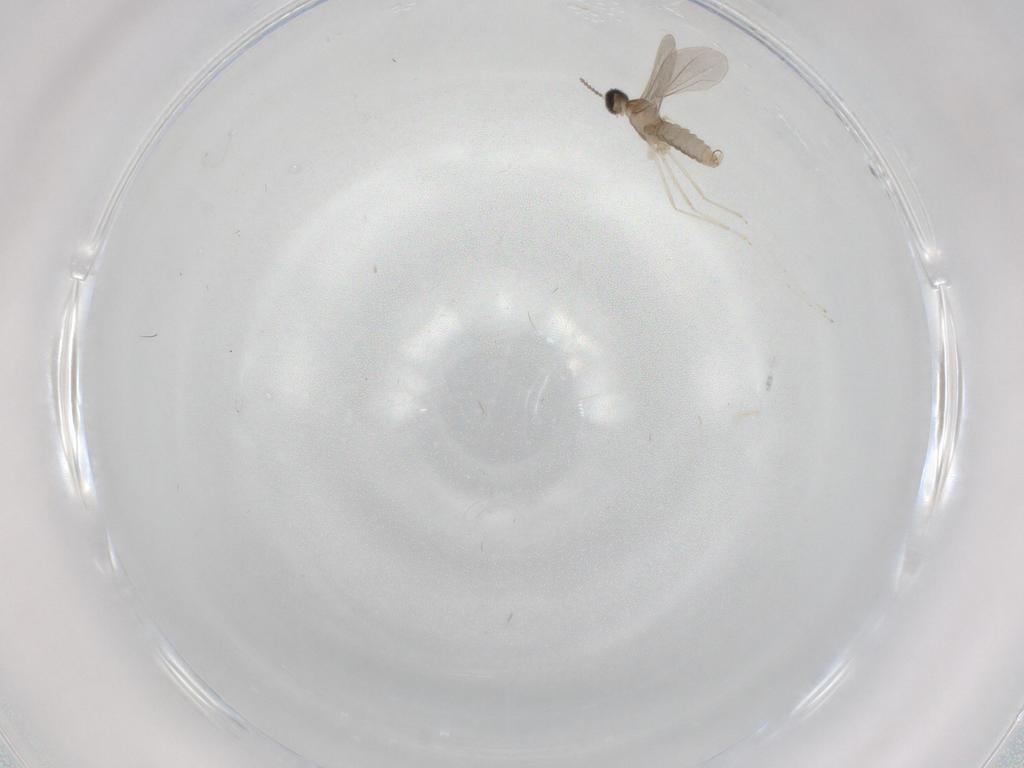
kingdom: Animalia
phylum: Arthropoda
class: Insecta
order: Diptera
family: Cecidomyiidae
